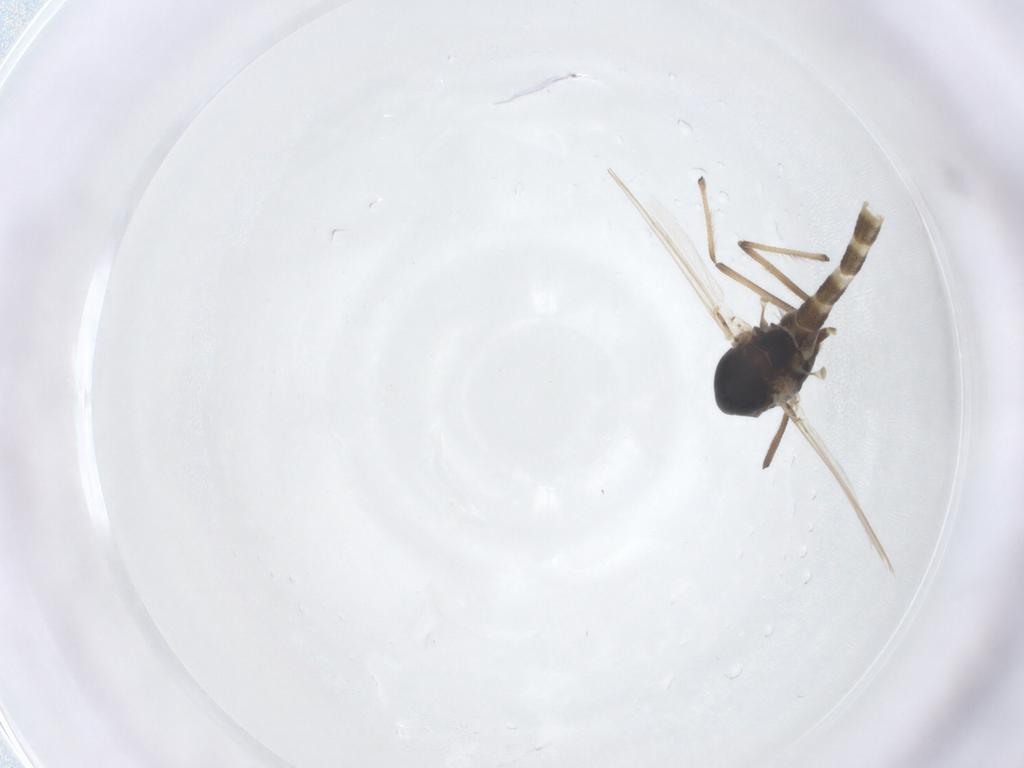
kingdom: Animalia
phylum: Arthropoda
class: Insecta
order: Diptera
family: Chironomidae
